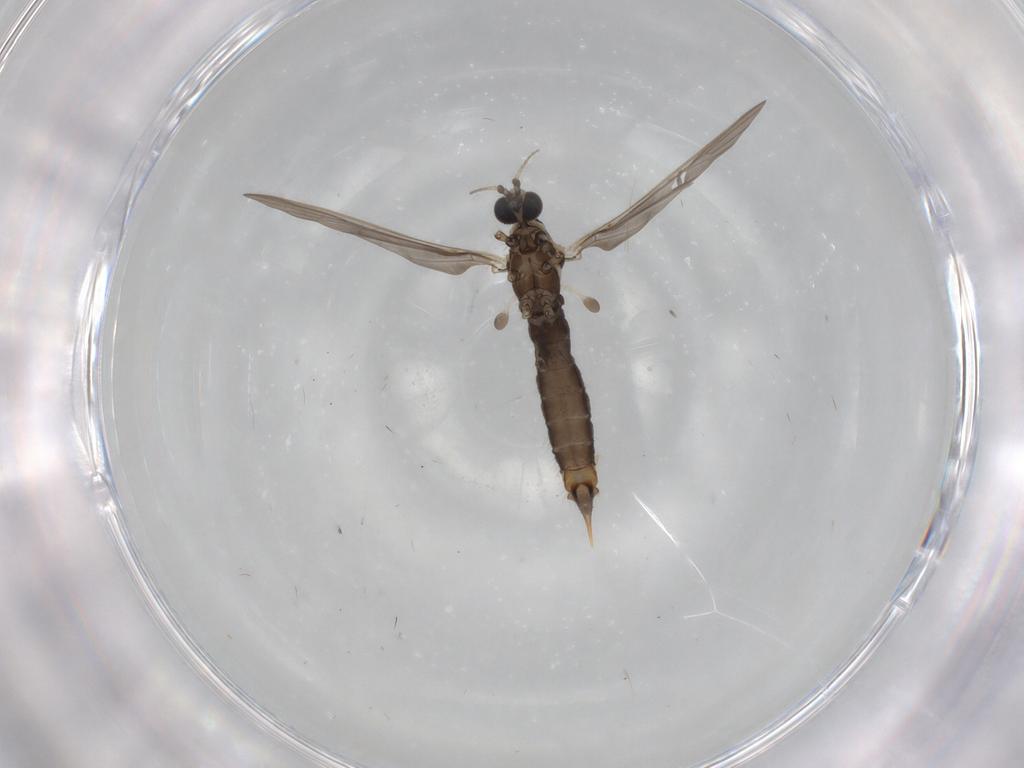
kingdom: Animalia
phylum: Arthropoda
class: Insecta
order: Diptera
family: Limoniidae
